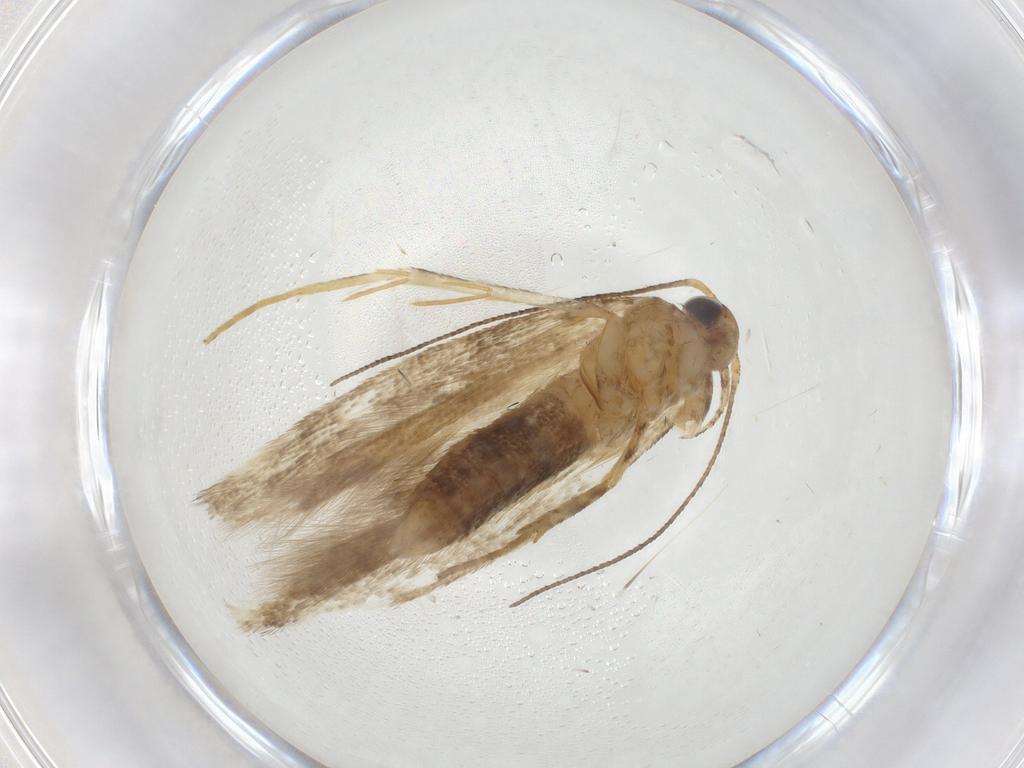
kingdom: Animalia
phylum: Arthropoda
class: Insecta
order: Lepidoptera
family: Gelechiidae
